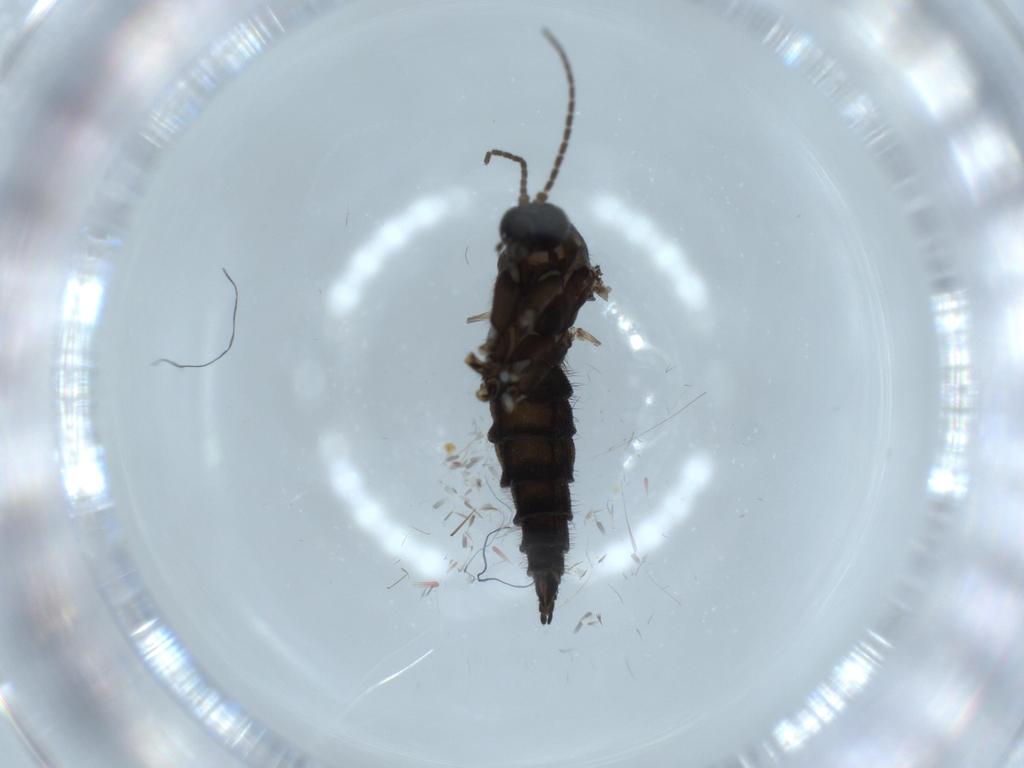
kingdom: Animalia
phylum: Arthropoda
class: Insecta
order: Diptera
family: Sciaridae
